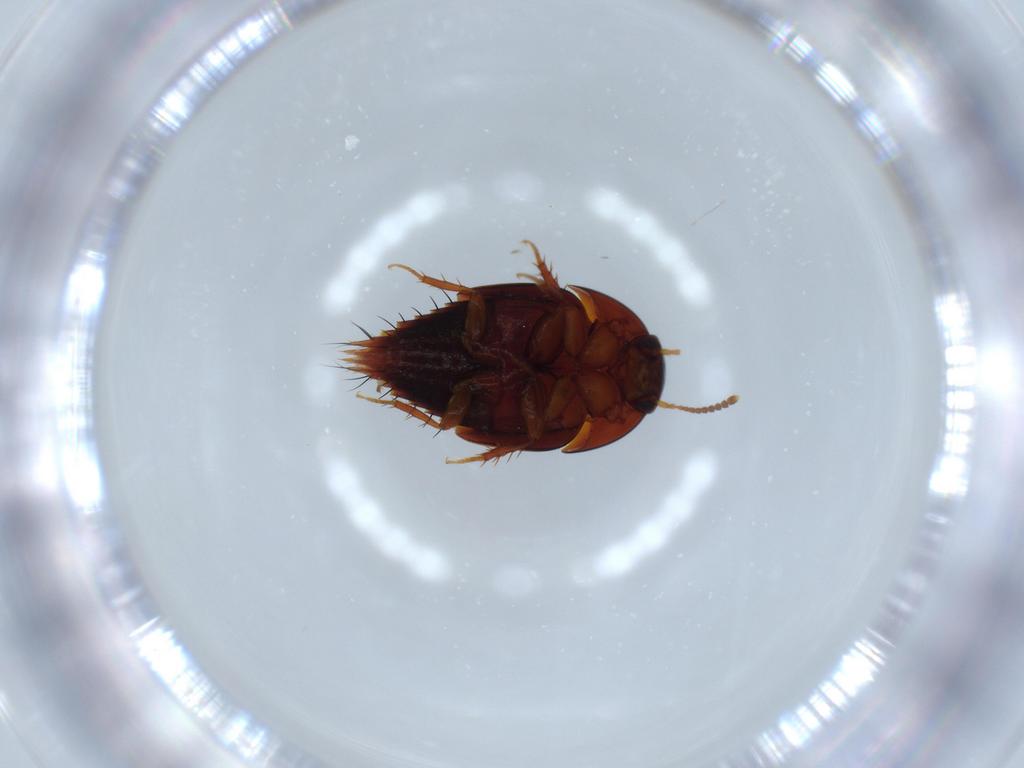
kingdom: Animalia
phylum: Arthropoda
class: Insecta
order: Coleoptera
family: Staphylinidae
